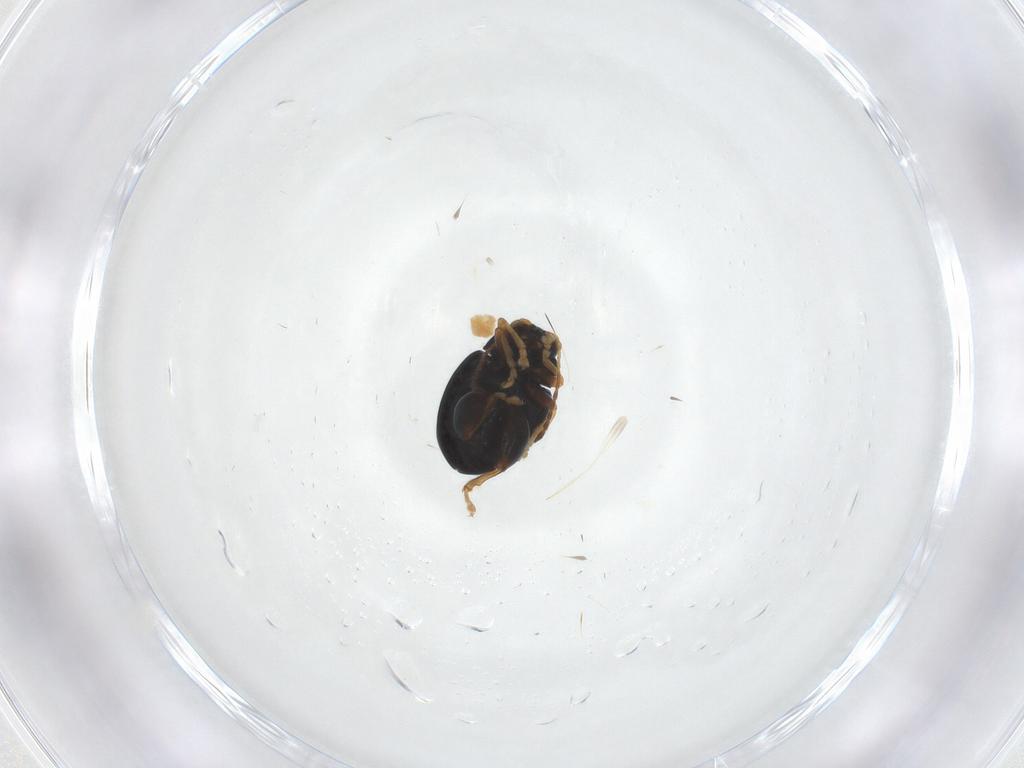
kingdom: Animalia
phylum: Arthropoda
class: Insecta
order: Coleoptera
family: Chrysomelidae
